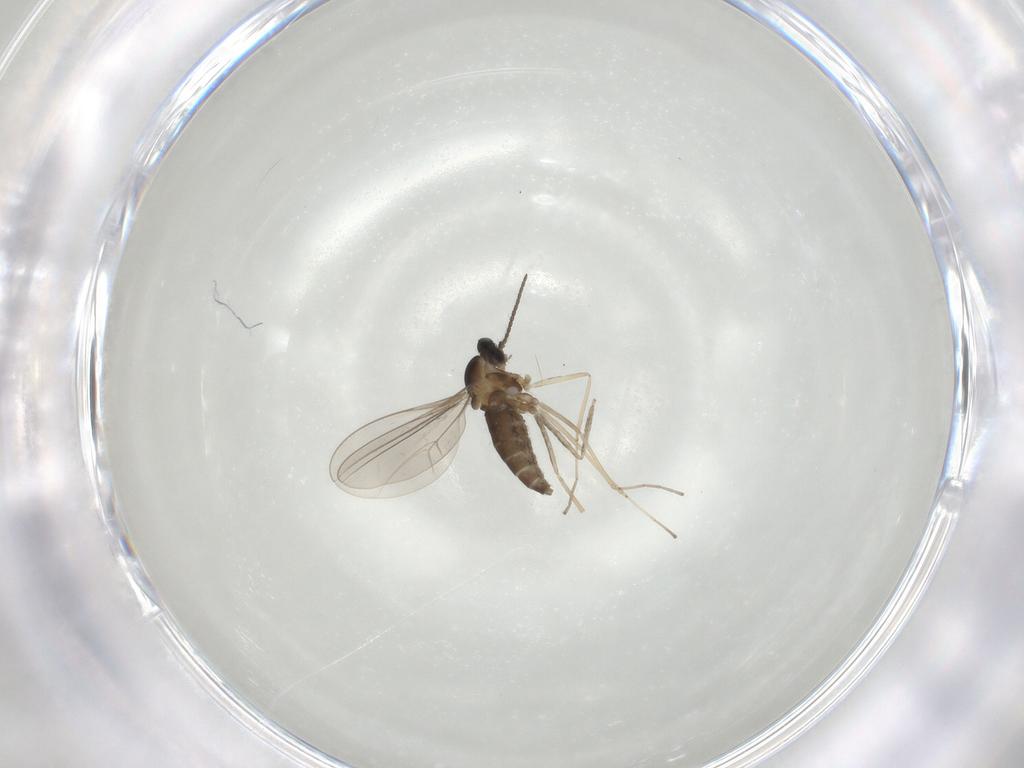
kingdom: Animalia
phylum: Arthropoda
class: Insecta
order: Diptera
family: Cecidomyiidae
